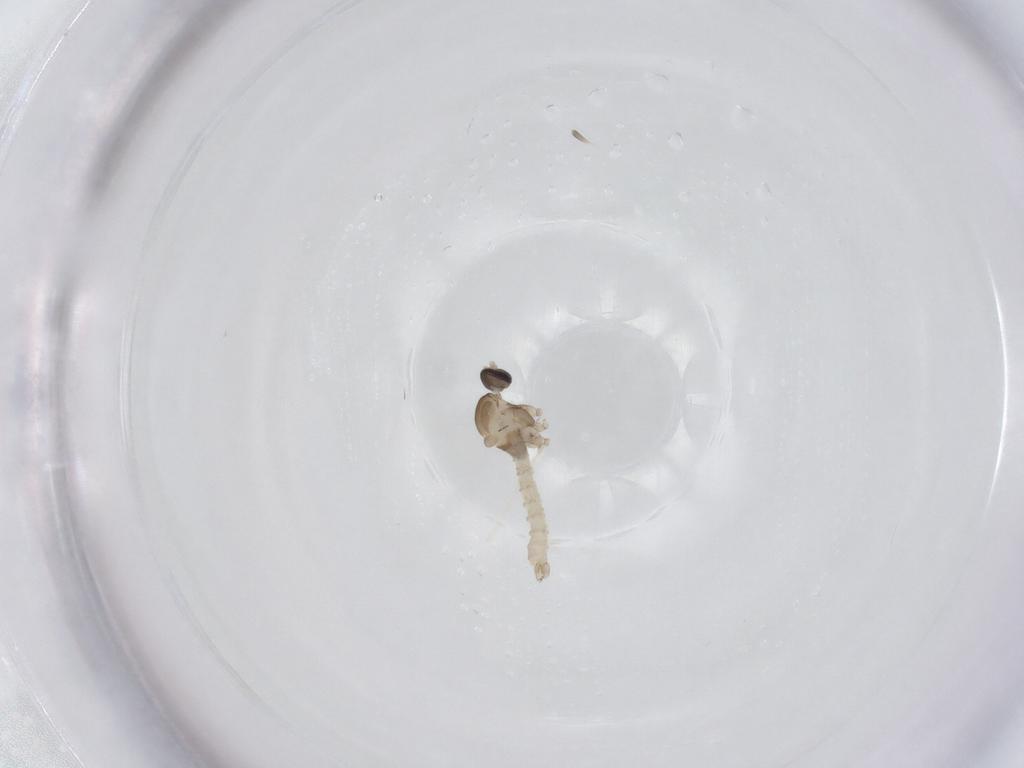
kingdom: Animalia
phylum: Arthropoda
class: Insecta
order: Diptera
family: Cecidomyiidae
